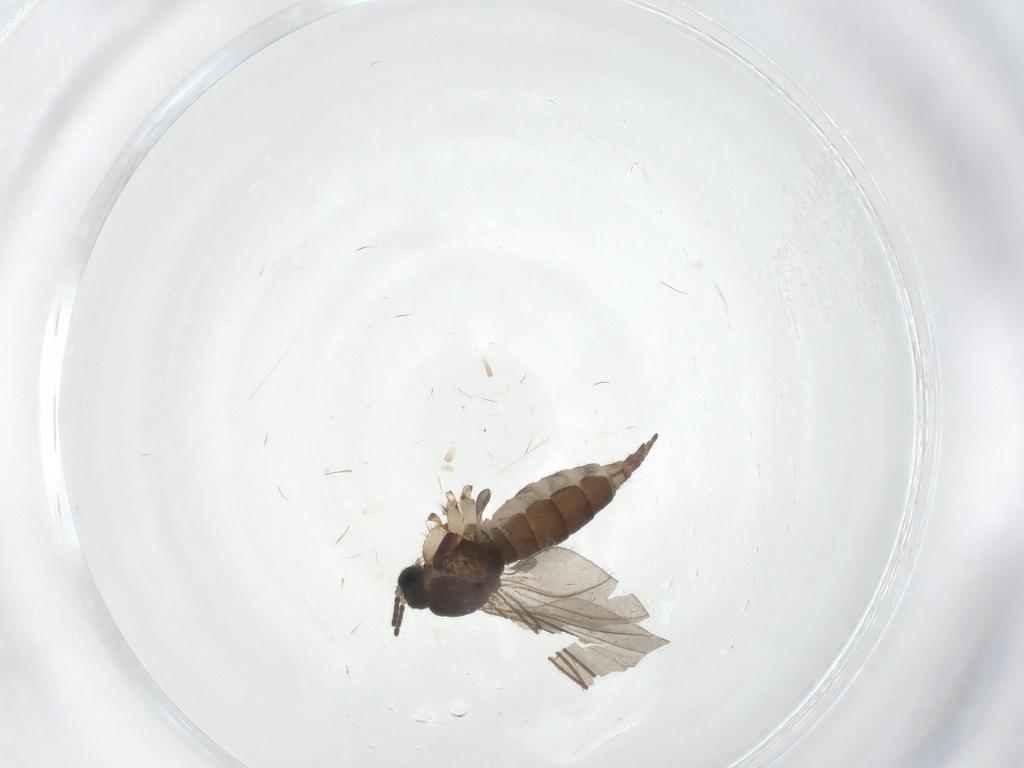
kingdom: Animalia
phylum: Arthropoda
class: Insecta
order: Diptera
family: Sciaridae
